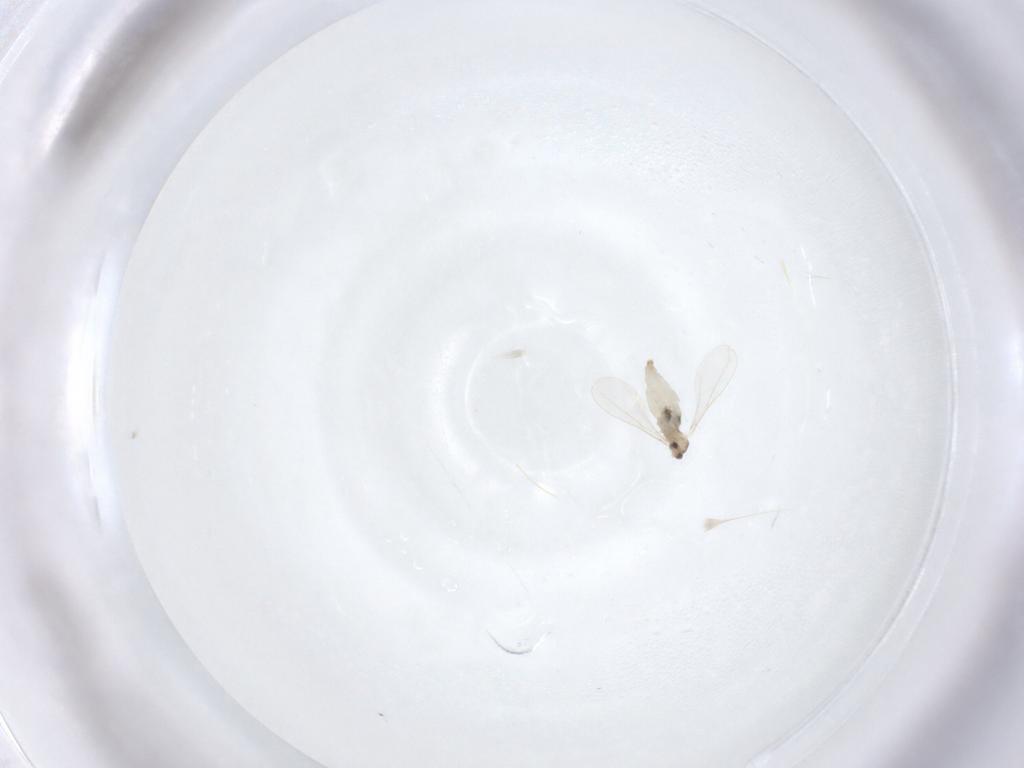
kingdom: Animalia
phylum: Arthropoda
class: Insecta
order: Diptera
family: Cecidomyiidae
